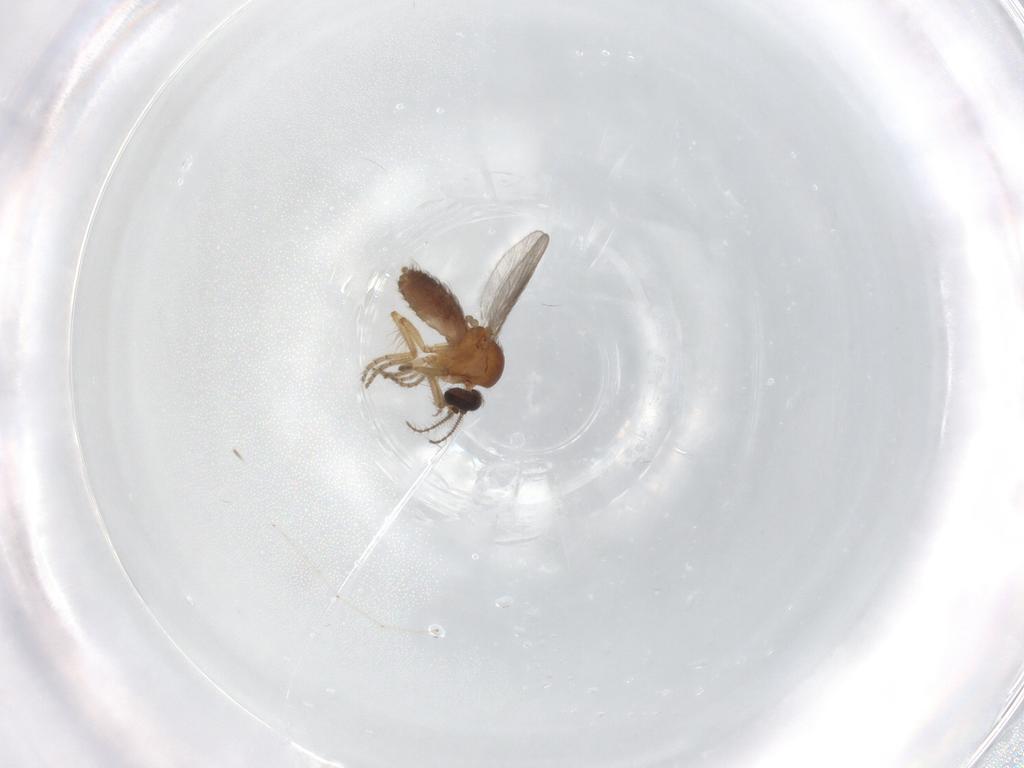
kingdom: Animalia
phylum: Arthropoda
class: Insecta
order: Diptera
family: Ceratopogonidae
